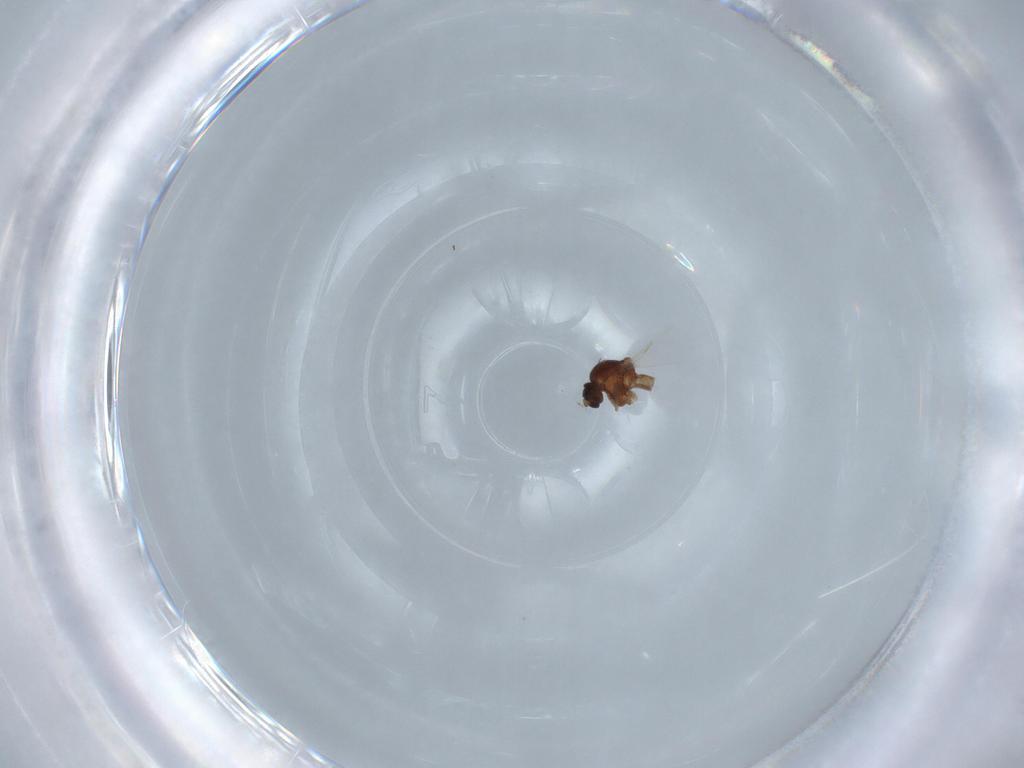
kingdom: Animalia
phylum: Arthropoda
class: Insecta
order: Diptera
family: Ceratopogonidae
